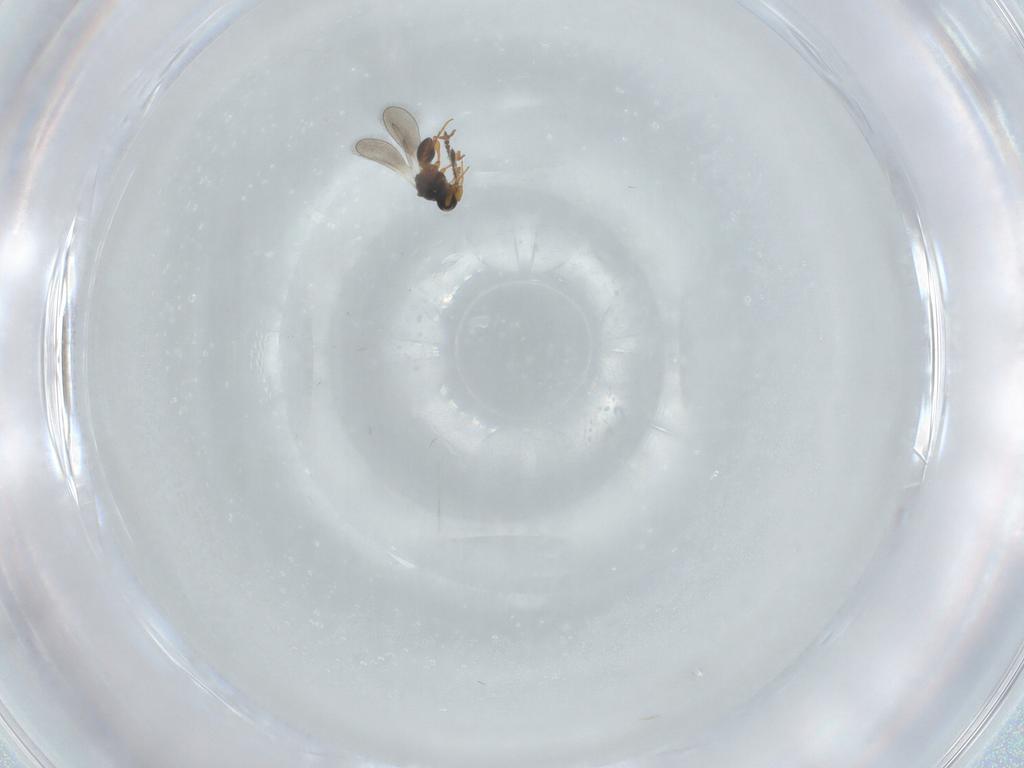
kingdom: Animalia
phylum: Arthropoda
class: Insecta
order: Hymenoptera
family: Platygastridae
